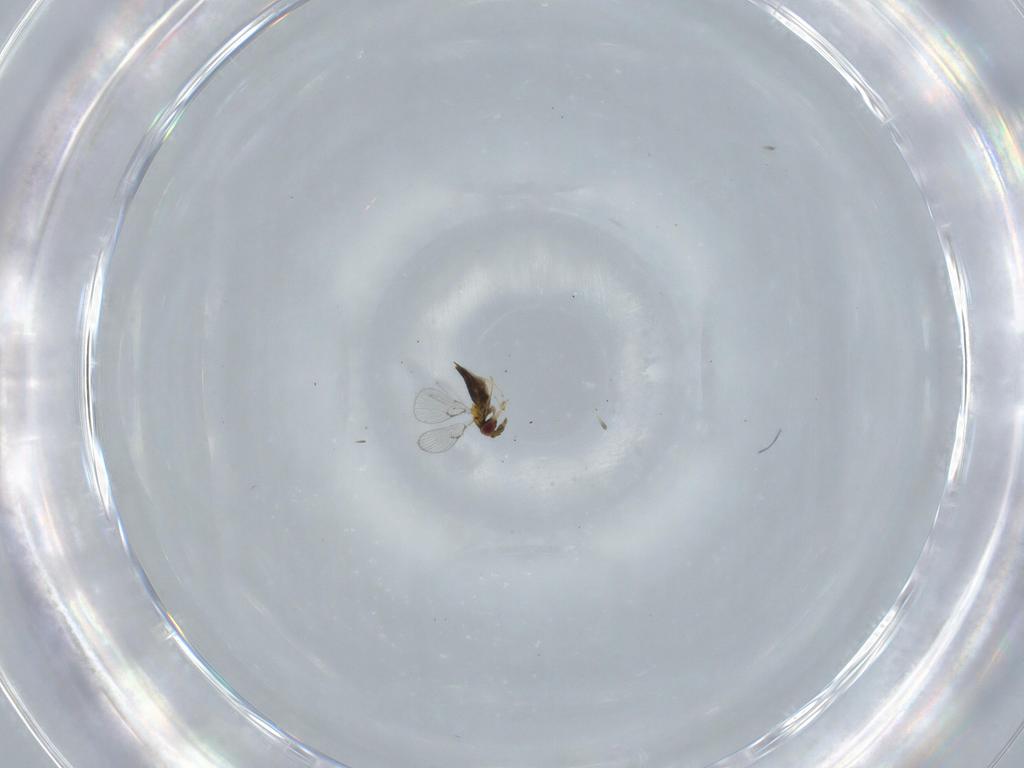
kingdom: Animalia
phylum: Arthropoda
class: Insecta
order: Hymenoptera
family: Trichogrammatidae
